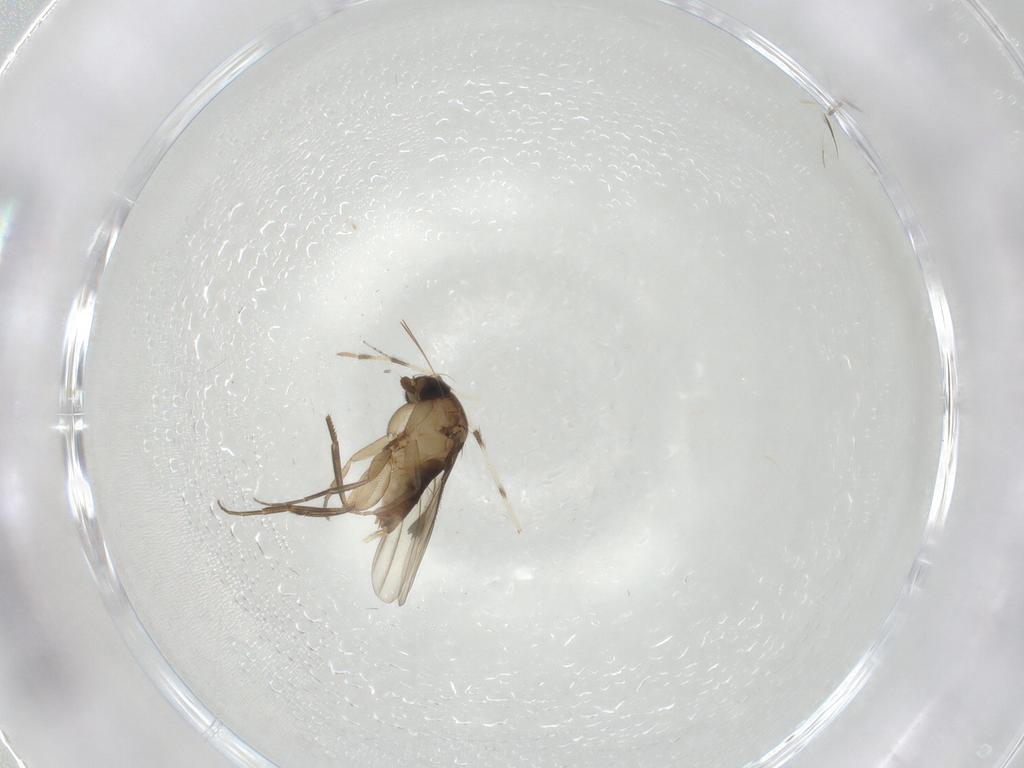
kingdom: Animalia
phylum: Arthropoda
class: Insecta
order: Diptera
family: Phoridae
